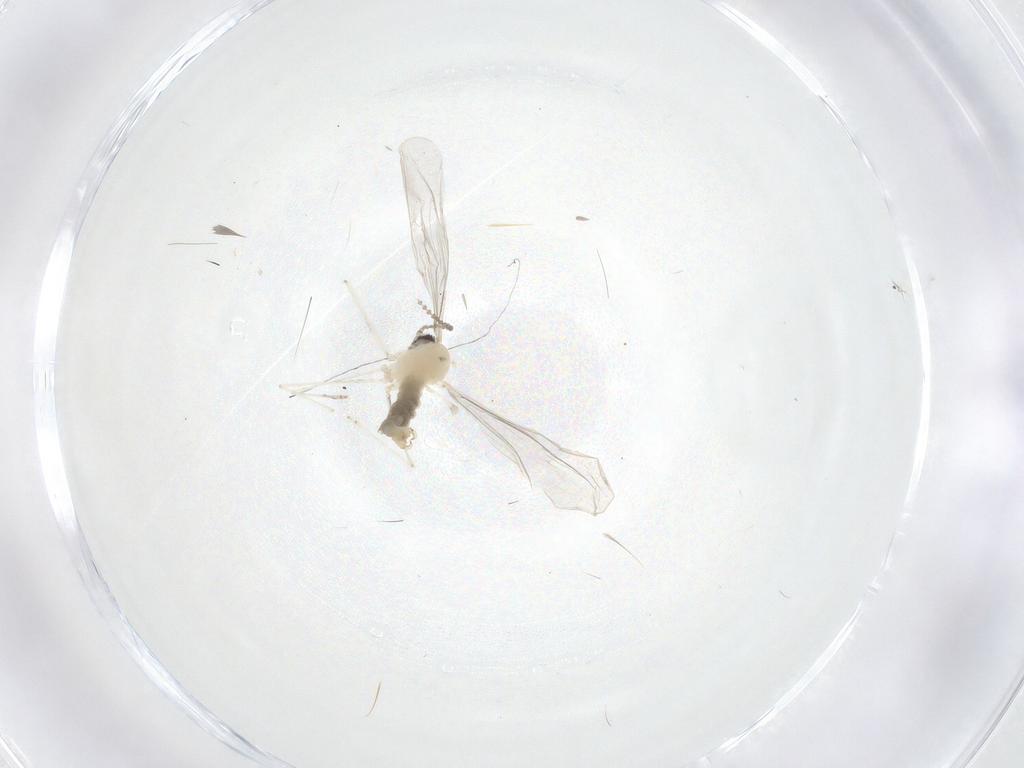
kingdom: Animalia
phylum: Arthropoda
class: Insecta
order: Diptera
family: Cecidomyiidae
